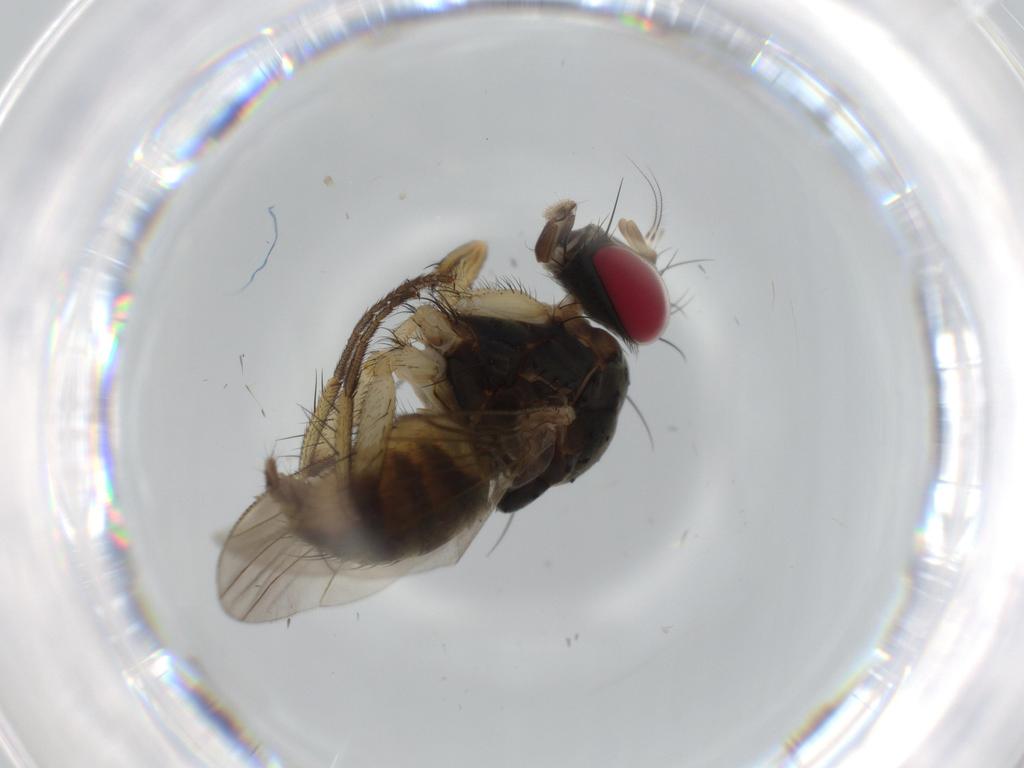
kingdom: Animalia
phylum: Arthropoda
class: Insecta
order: Diptera
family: Muscidae
